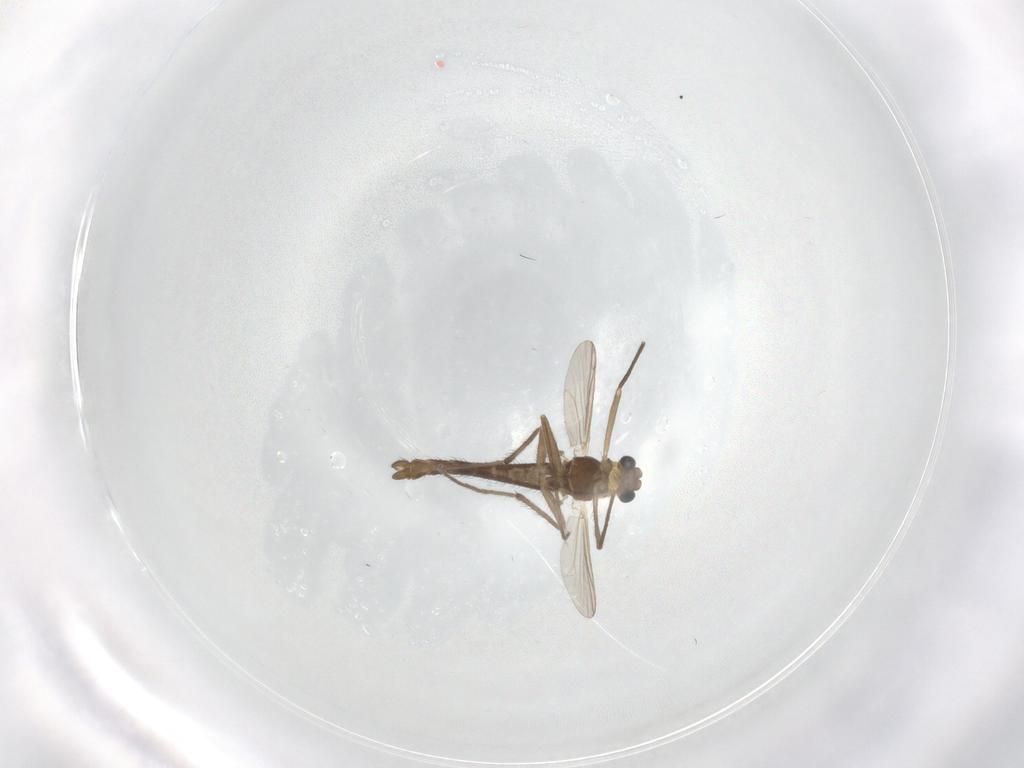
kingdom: Animalia
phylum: Arthropoda
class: Insecta
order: Diptera
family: Chironomidae
